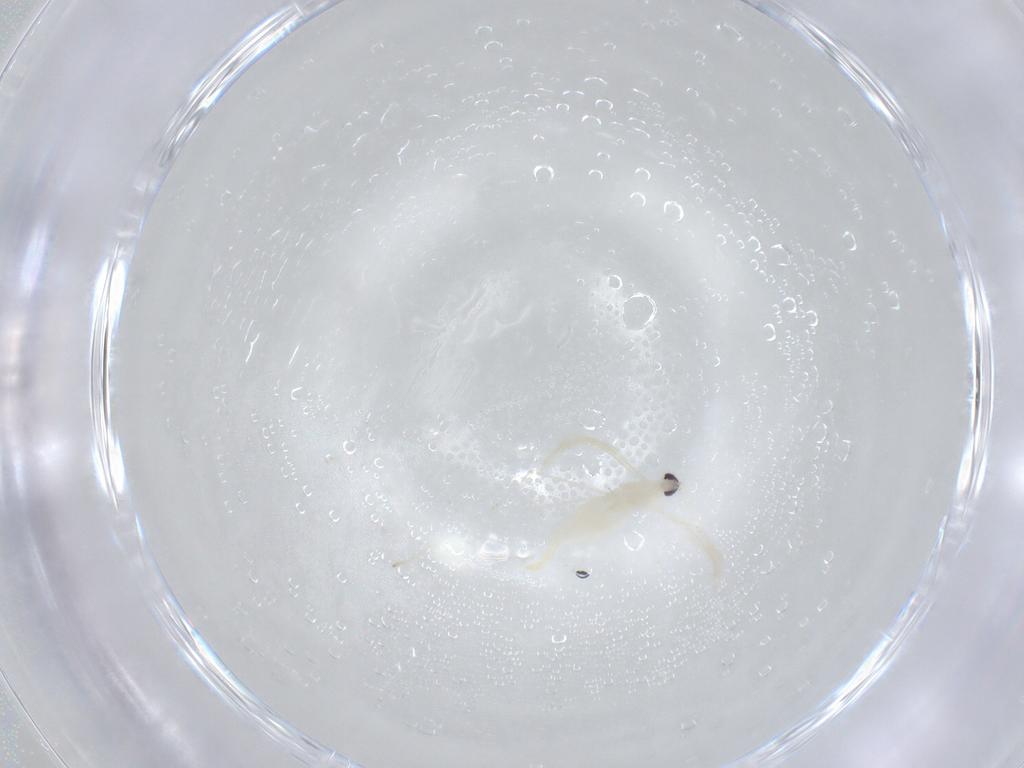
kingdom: Animalia
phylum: Arthropoda
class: Insecta
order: Diptera
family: Cecidomyiidae
